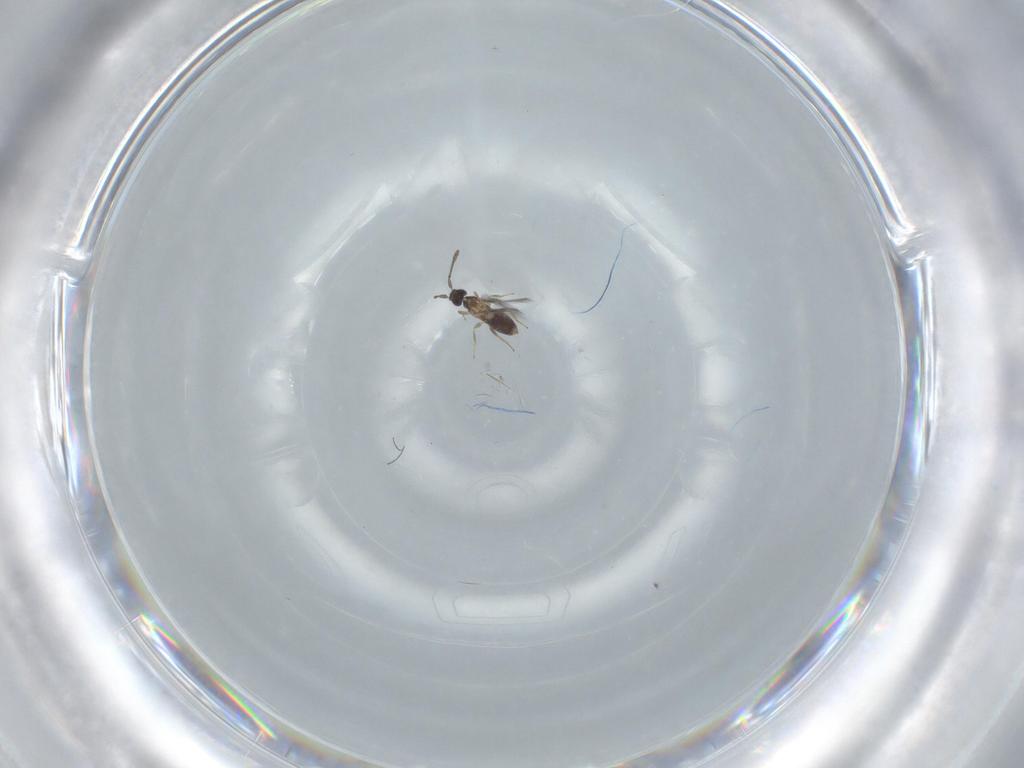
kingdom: Animalia
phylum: Arthropoda
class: Insecta
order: Hymenoptera
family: Mymaridae
